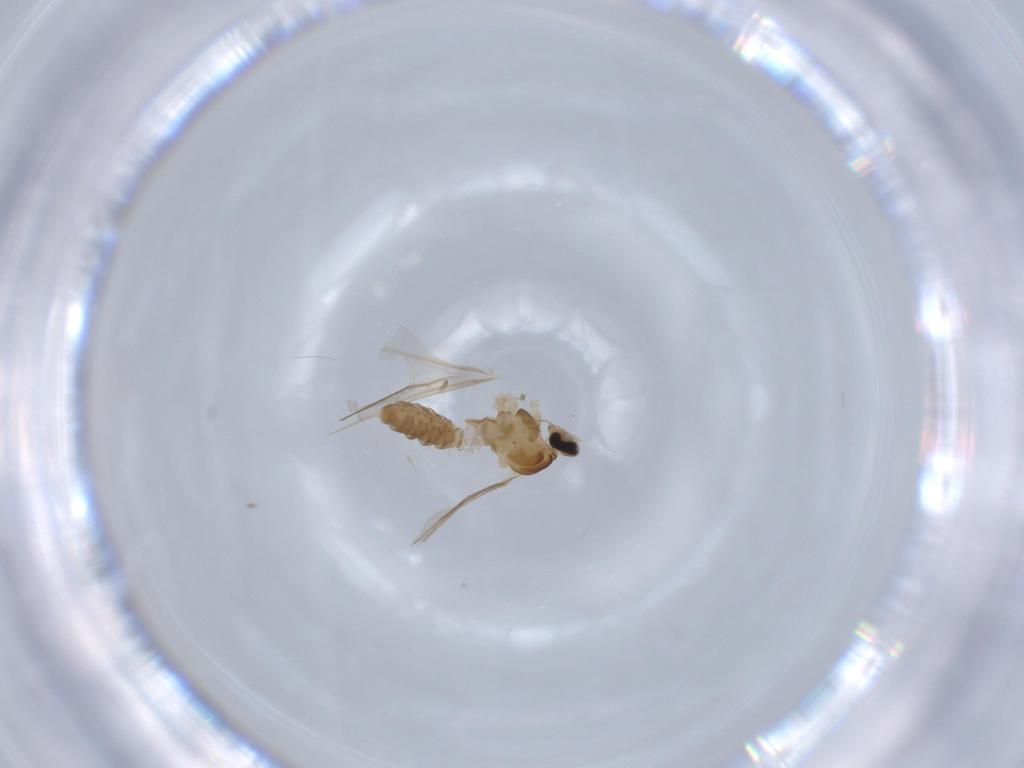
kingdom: Animalia
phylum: Arthropoda
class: Insecta
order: Diptera
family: Cecidomyiidae
